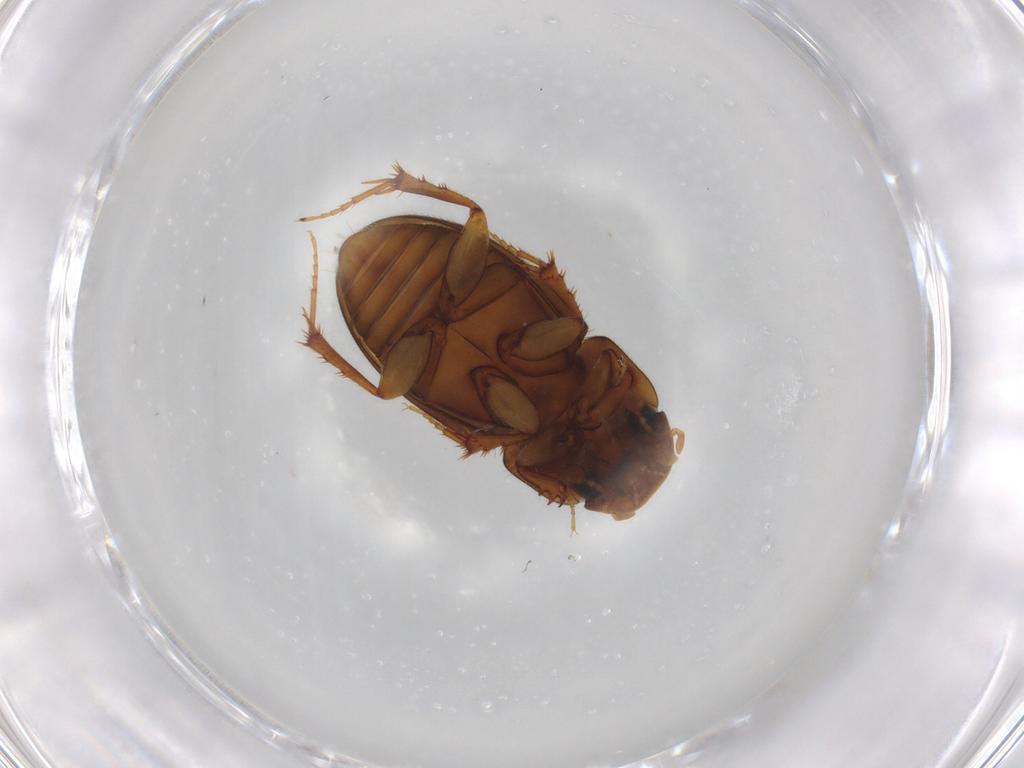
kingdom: Animalia
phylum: Arthropoda
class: Insecta
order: Coleoptera
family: Scarabaeidae
